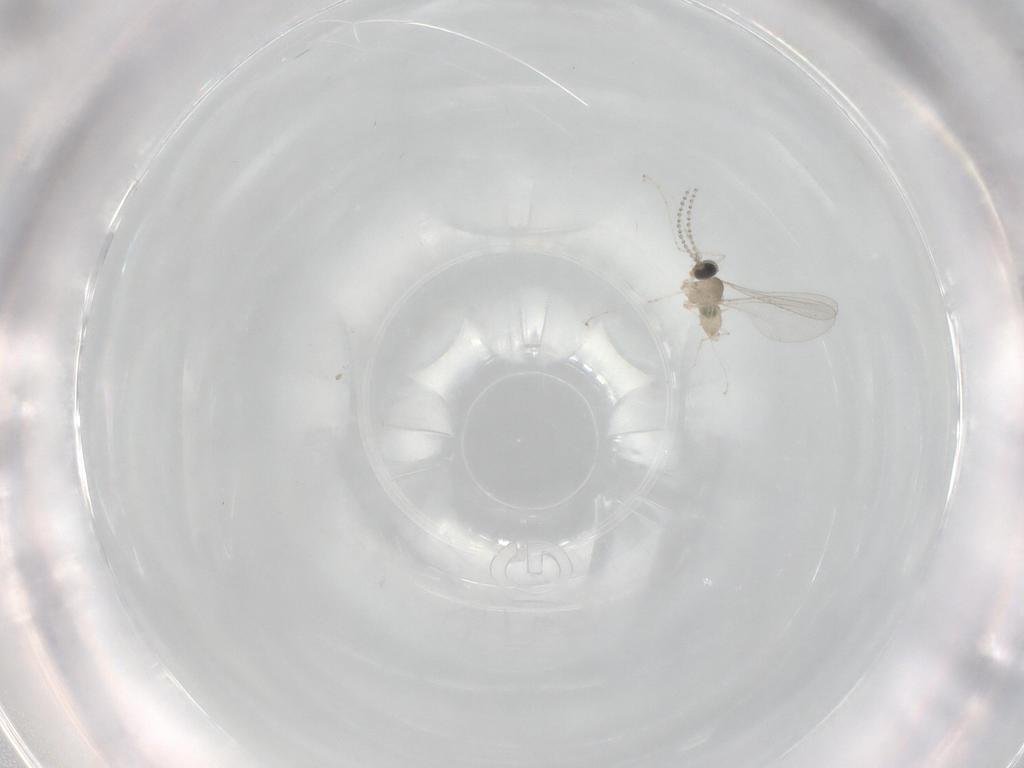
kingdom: Animalia
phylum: Arthropoda
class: Insecta
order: Diptera
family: Cecidomyiidae
